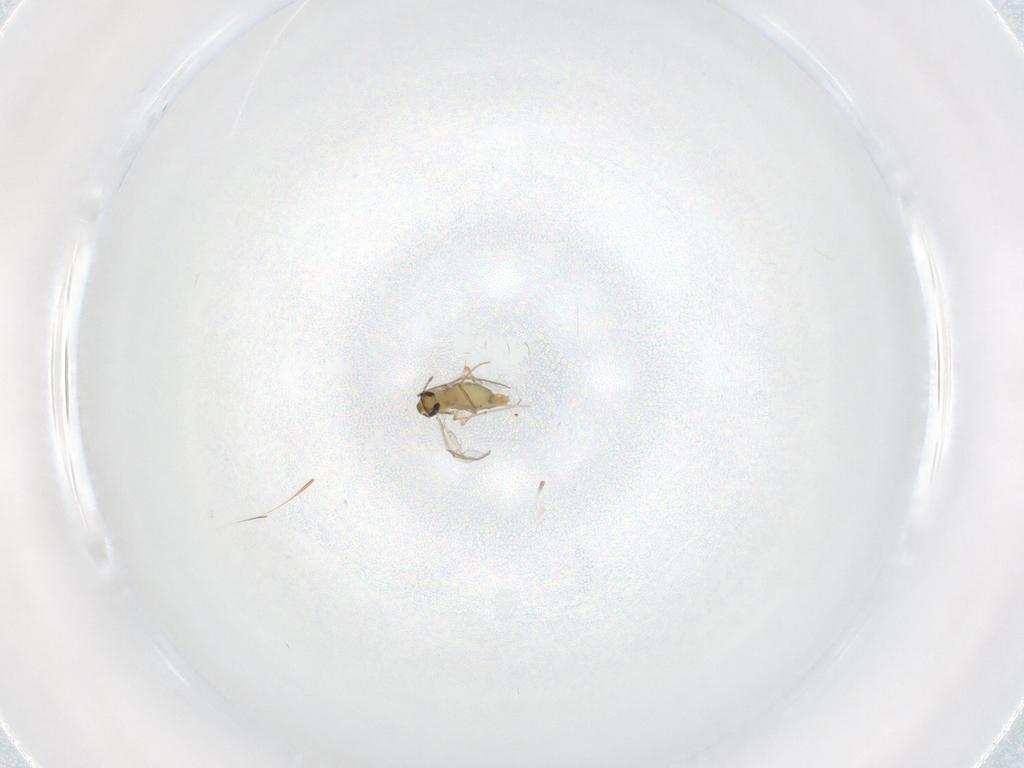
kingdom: Animalia
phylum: Arthropoda
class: Insecta
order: Diptera
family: Chironomidae
